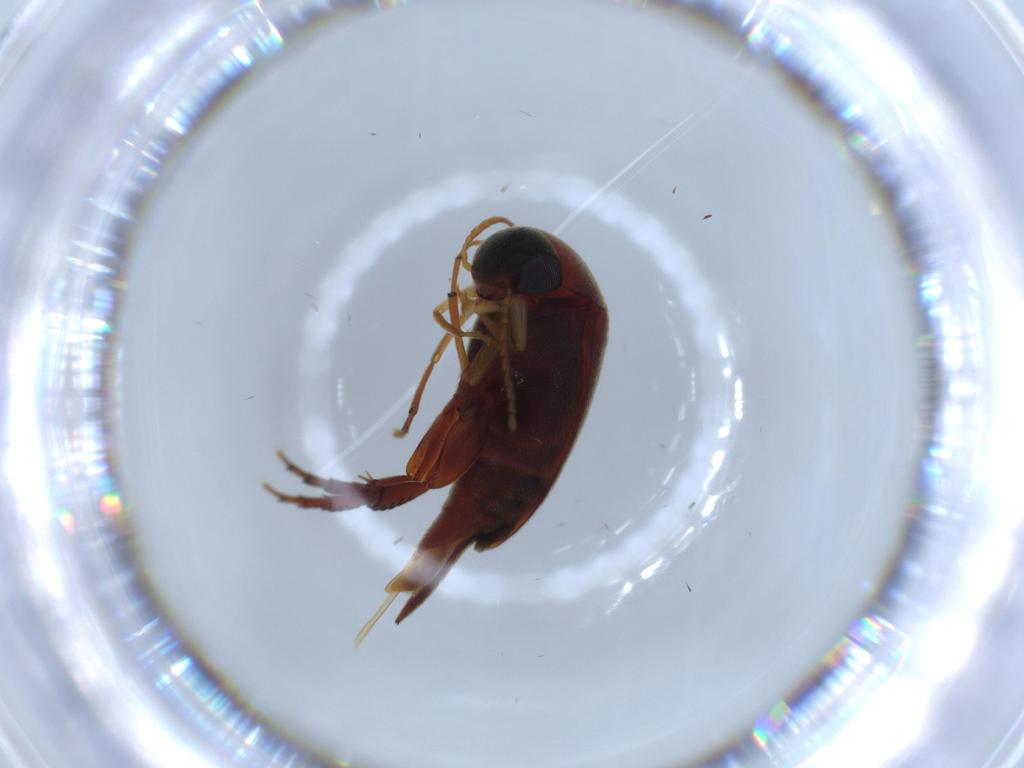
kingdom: Animalia
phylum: Arthropoda
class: Insecta
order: Coleoptera
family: Mordellidae
